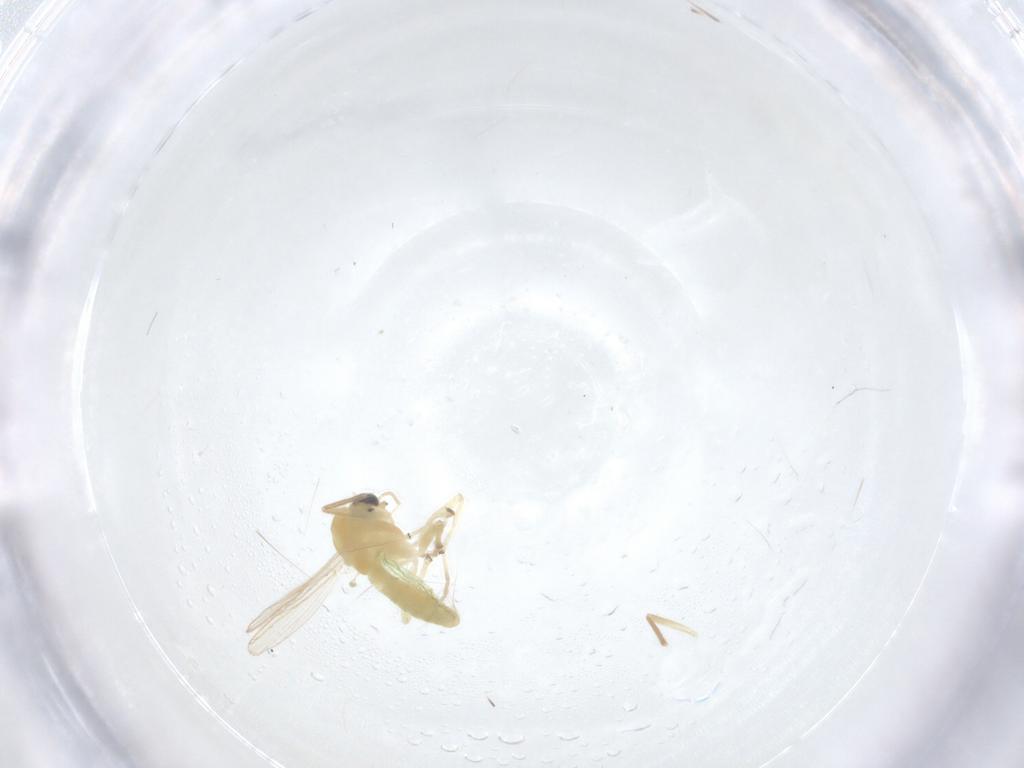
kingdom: Animalia
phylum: Arthropoda
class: Insecta
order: Diptera
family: Chironomidae
